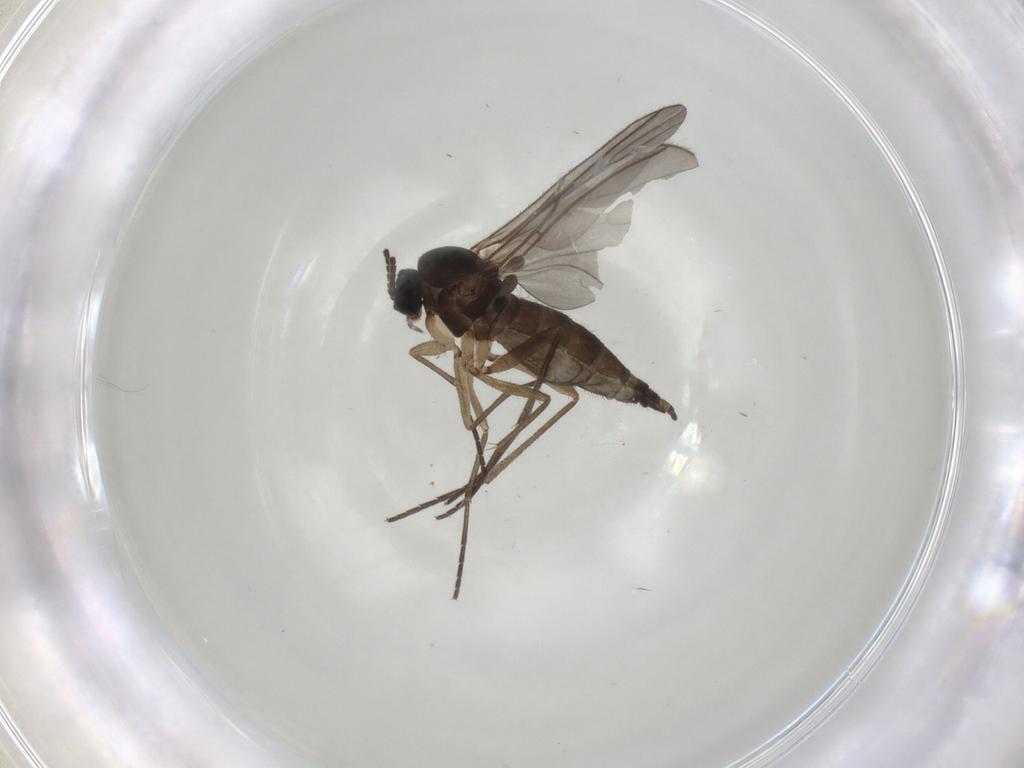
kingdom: Animalia
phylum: Arthropoda
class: Insecta
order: Diptera
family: Sciaridae
